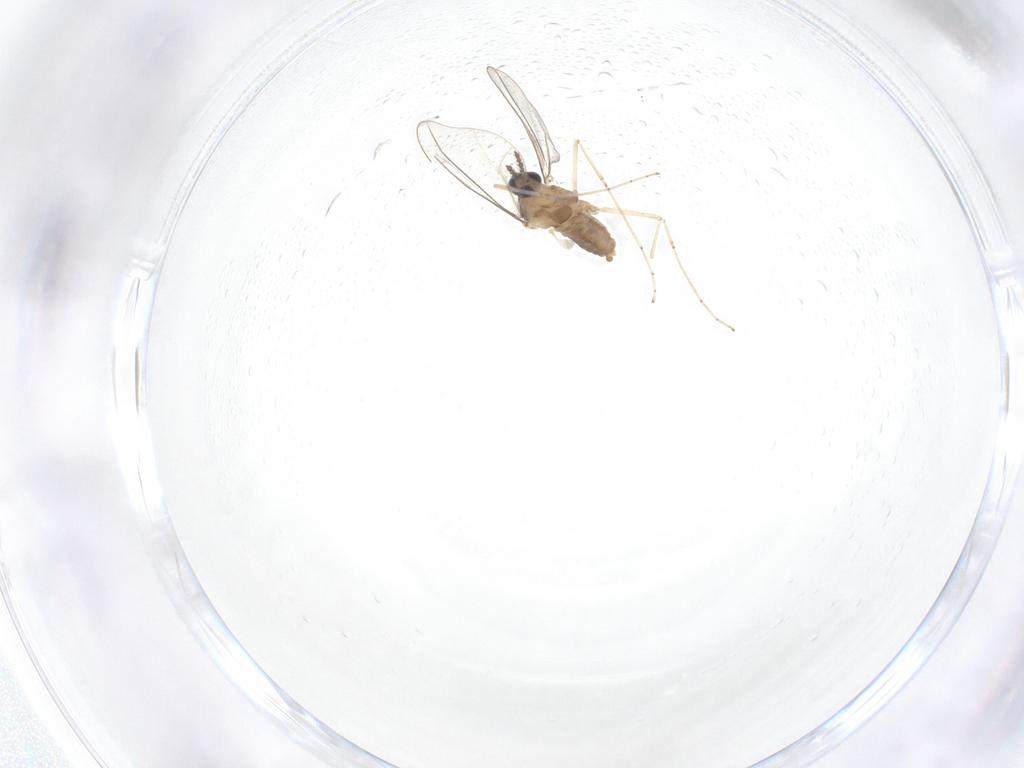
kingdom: Animalia
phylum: Arthropoda
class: Insecta
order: Diptera
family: Cecidomyiidae
